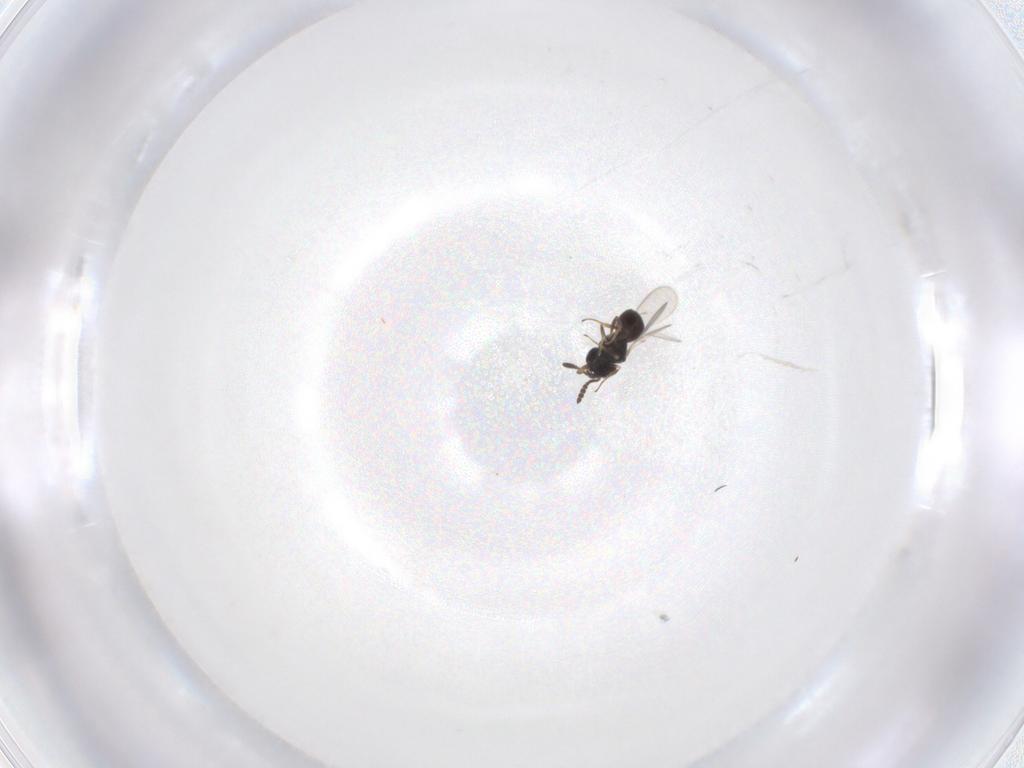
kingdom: Animalia
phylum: Arthropoda
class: Insecta
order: Hymenoptera
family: Scelionidae
